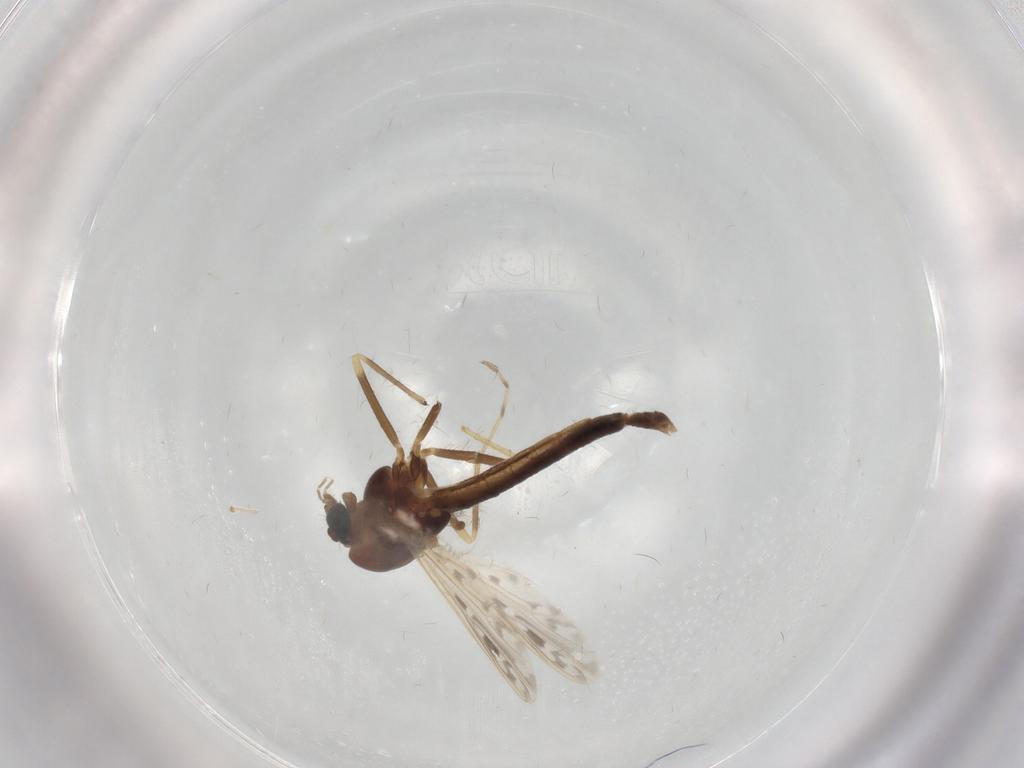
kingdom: Animalia
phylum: Arthropoda
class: Insecta
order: Diptera
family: Chironomidae
